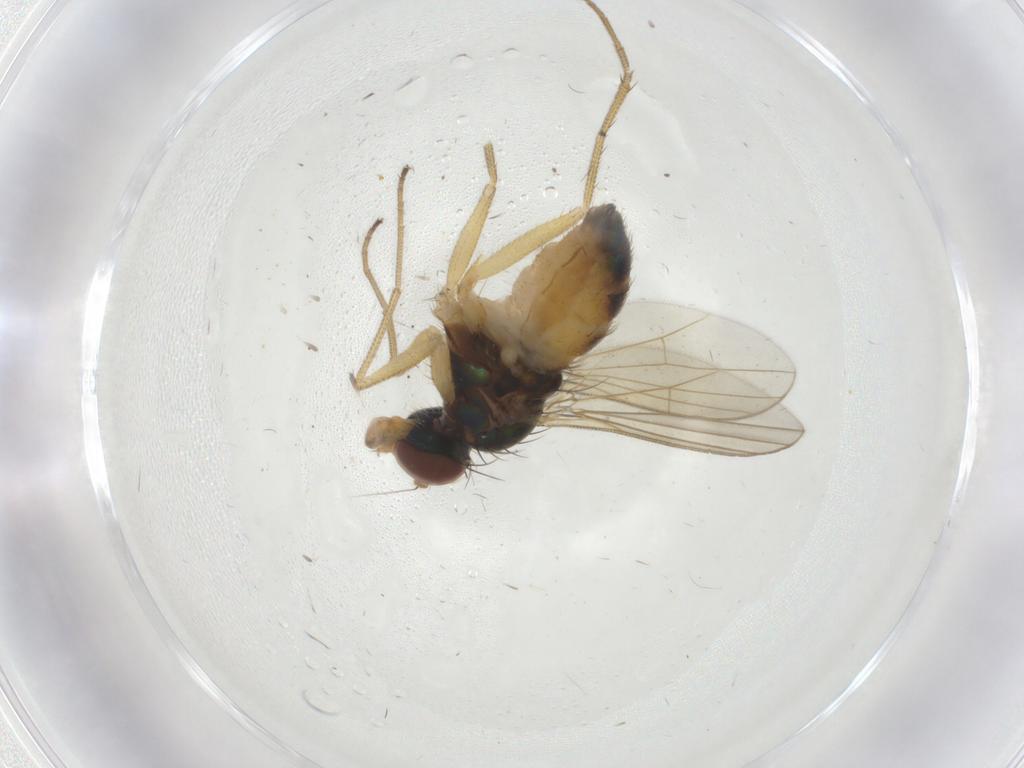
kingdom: Animalia
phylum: Arthropoda
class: Insecta
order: Diptera
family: Dolichopodidae
